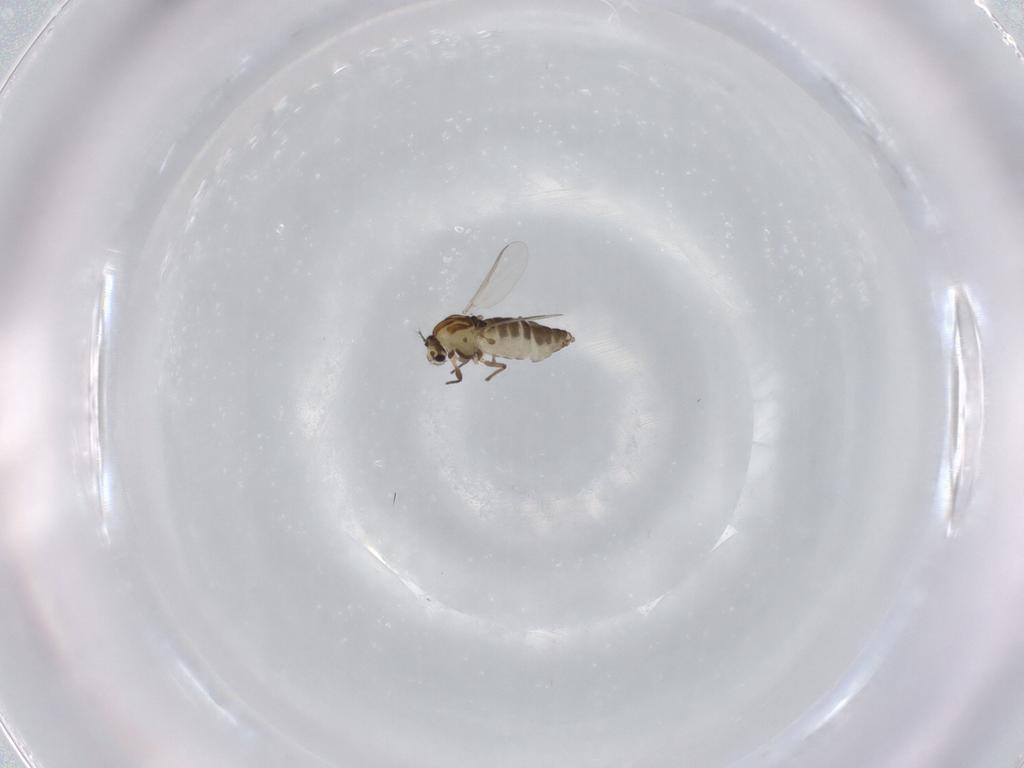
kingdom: Animalia
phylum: Arthropoda
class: Insecta
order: Diptera
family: Chironomidae
